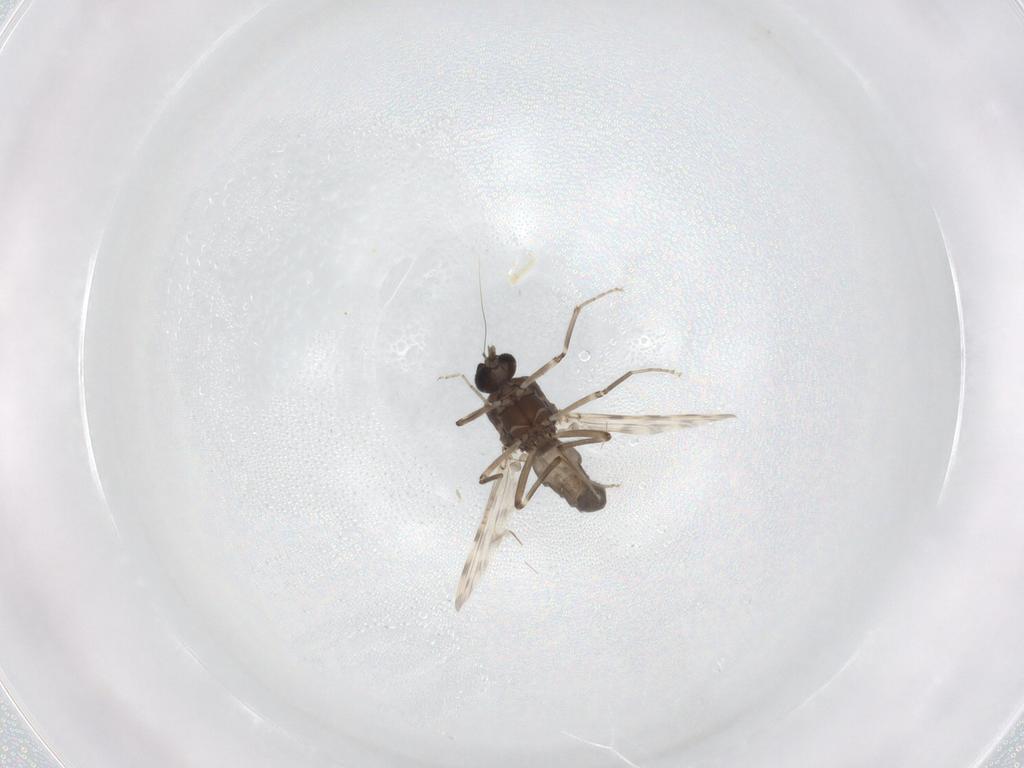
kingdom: Animalia
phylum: Arthropoda
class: Insecta
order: Diptera
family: Ceratopogonidae
